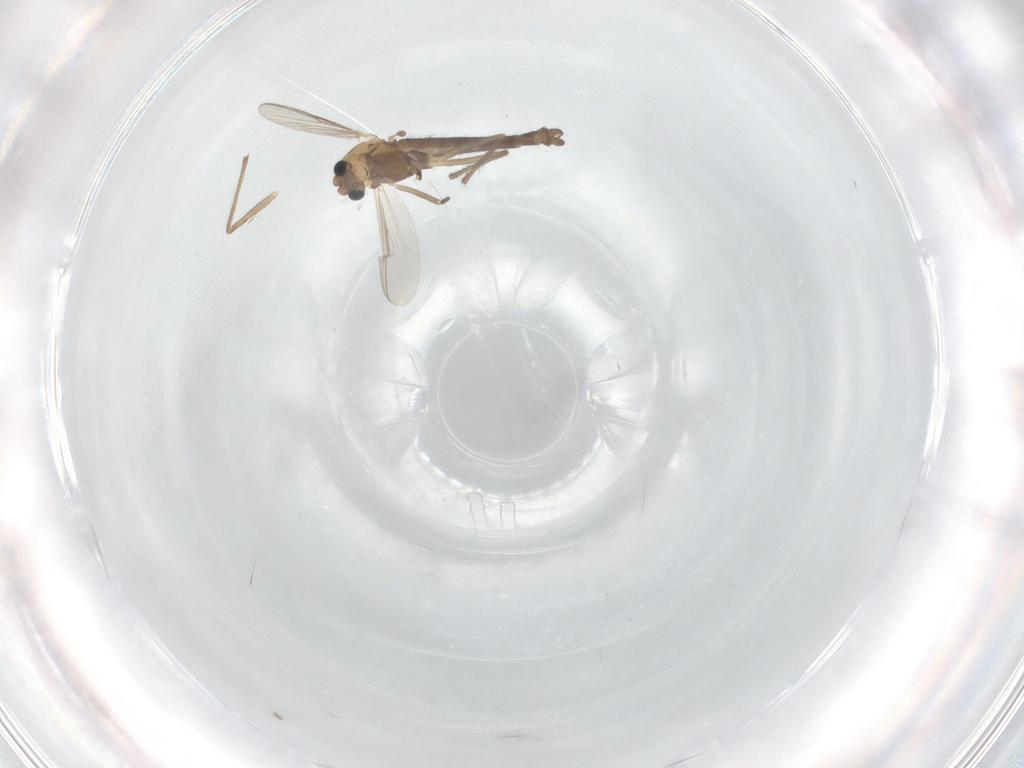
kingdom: Animalia
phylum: Arthropoda
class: Insecta
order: Diptera
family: Chironomidae
